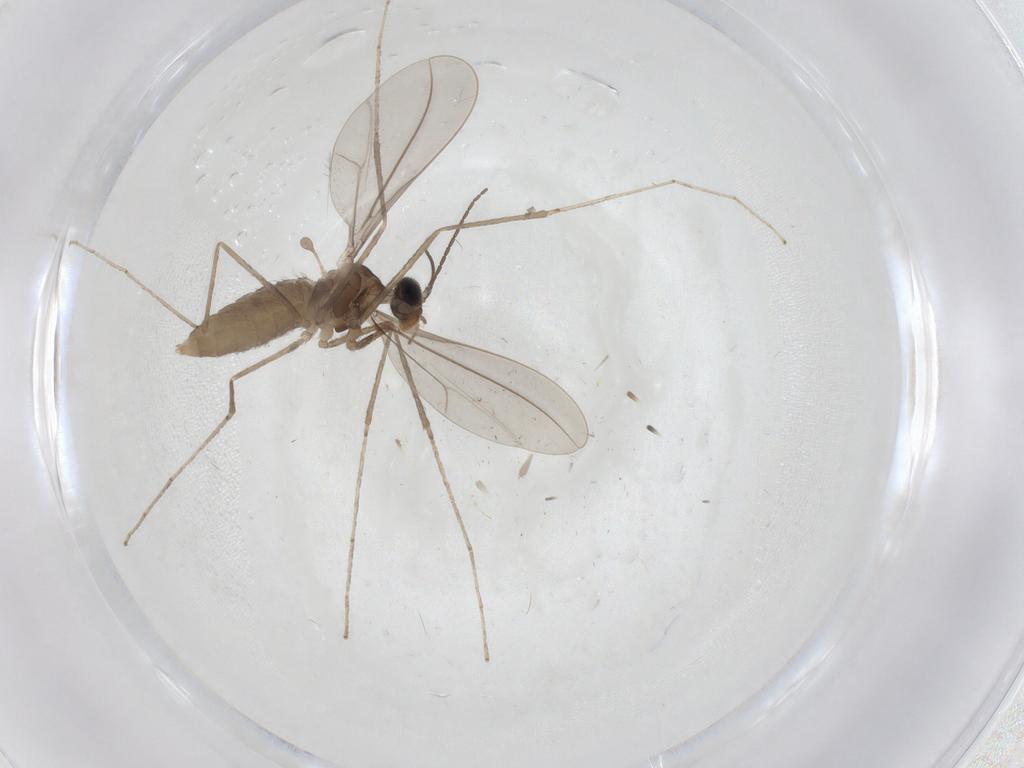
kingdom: Animalia
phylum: Arthropoda
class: Insecta
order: Diptera
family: Cecidomyiidae
